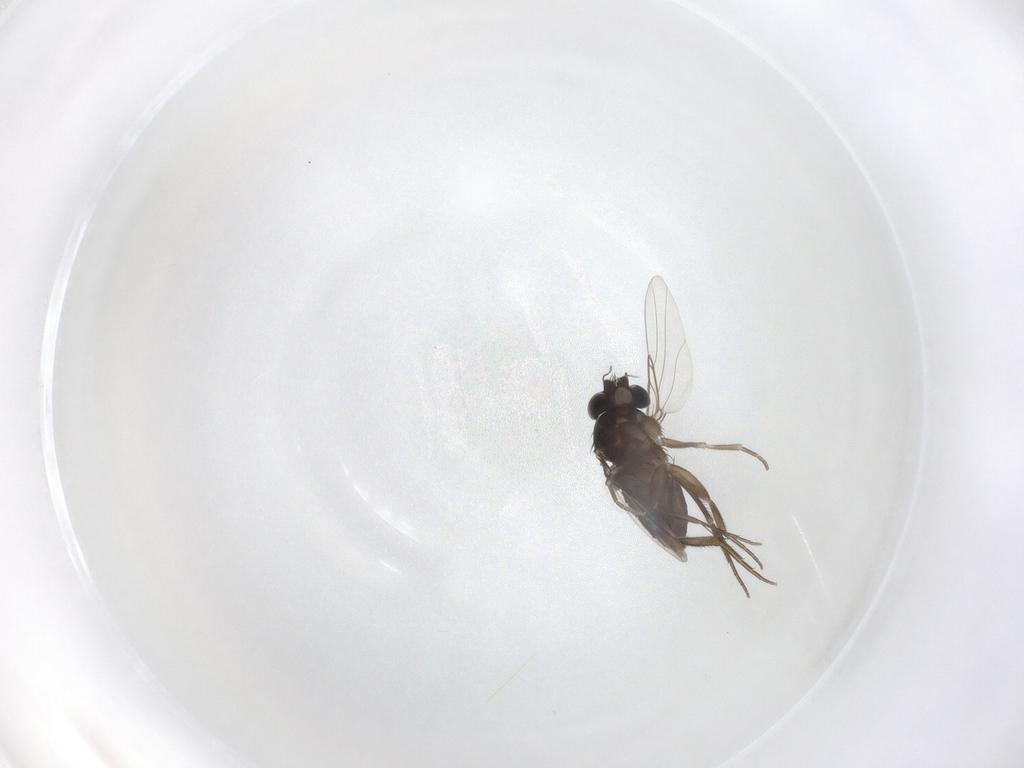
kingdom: Animalia
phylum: Arthropoda
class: Insecta
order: Diptera
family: Phoridae
